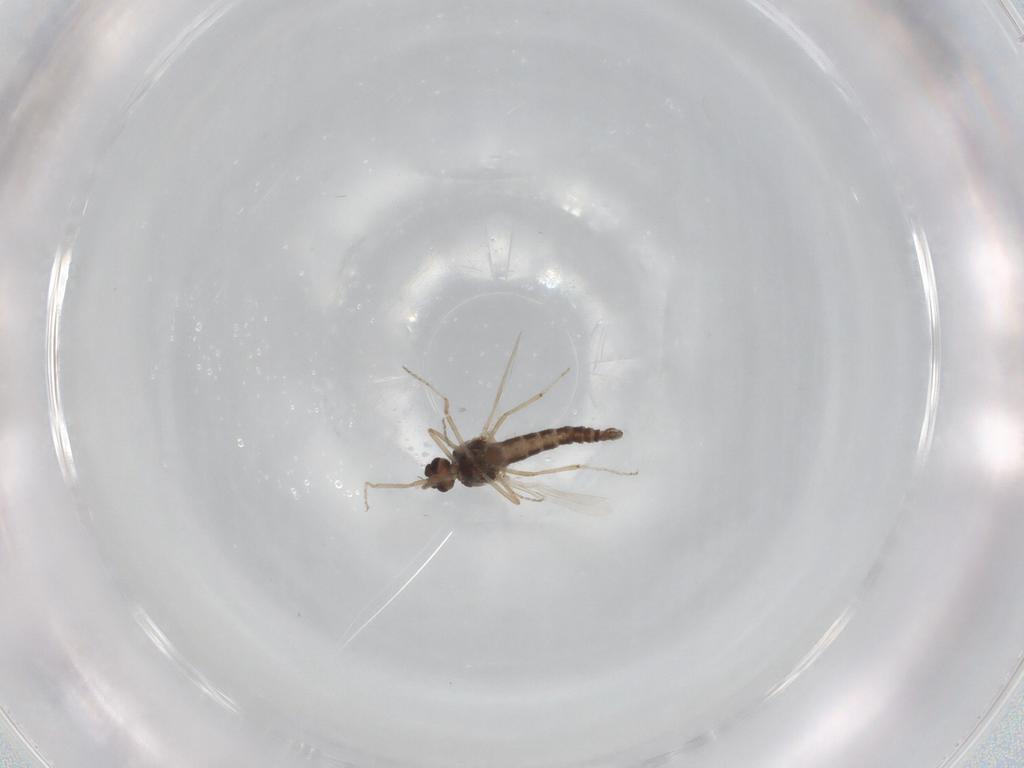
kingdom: Animalia
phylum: Arthropoda
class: Insecta
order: Diptera
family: Ceratopogonidae
